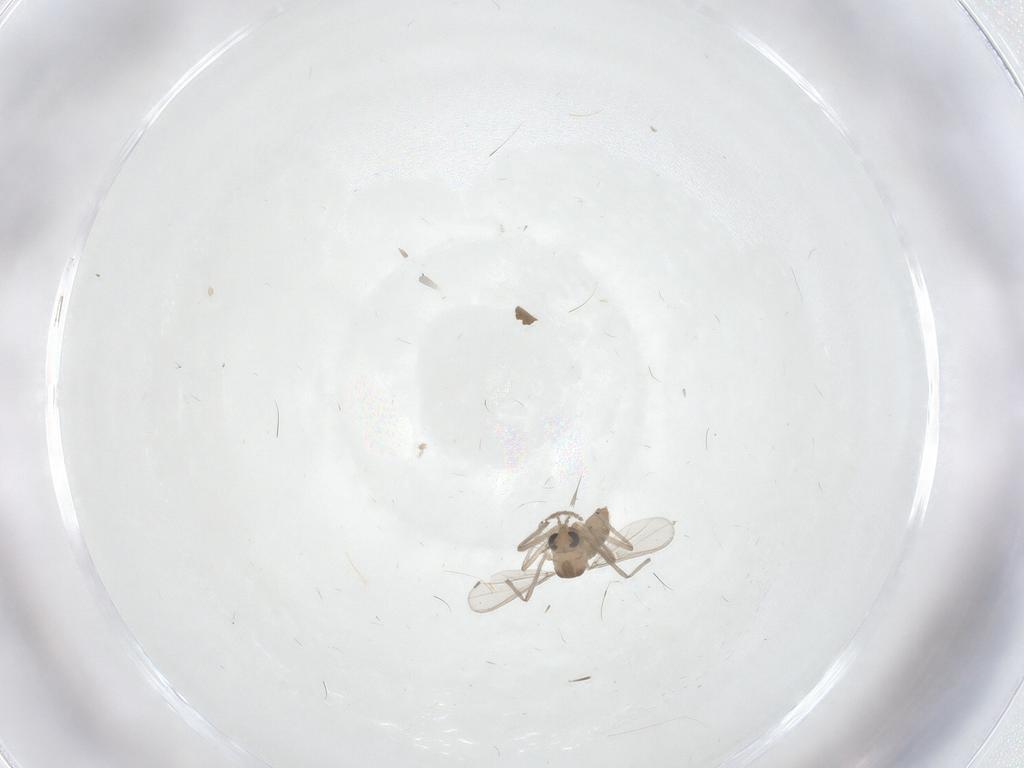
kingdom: Animalia
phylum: Arthropoda
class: Insecta
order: Diptera
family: Chironomidae
